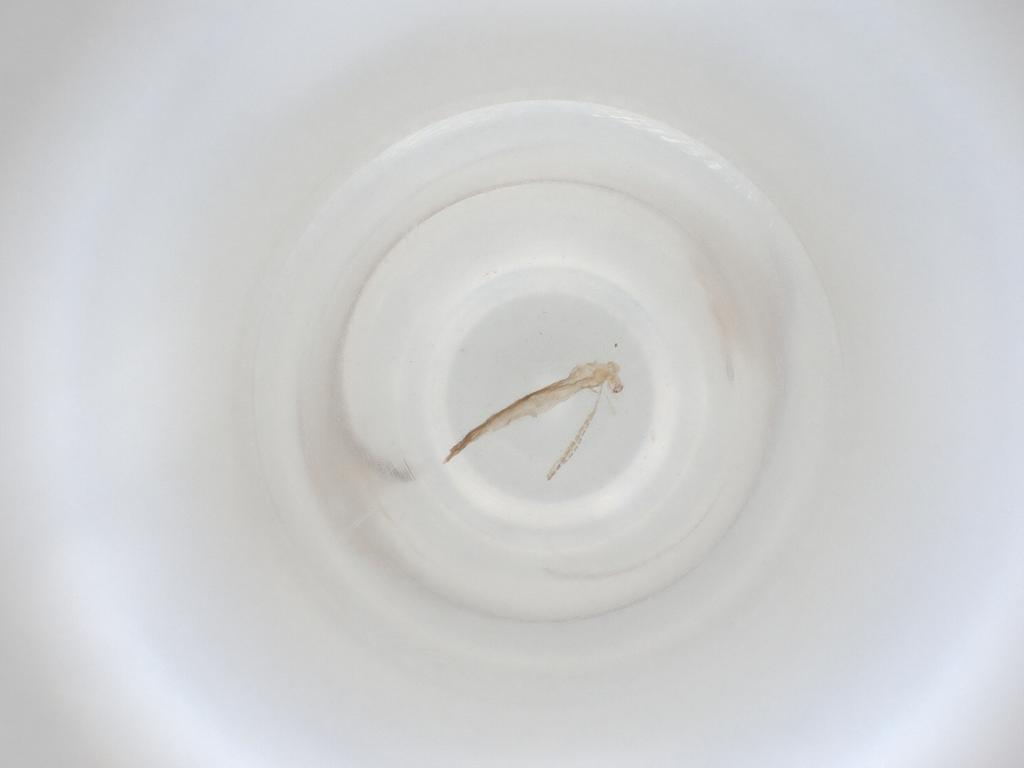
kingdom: Animalia
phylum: Arthropoda
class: Insecta
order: Diptera
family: Cecidomyiidae
